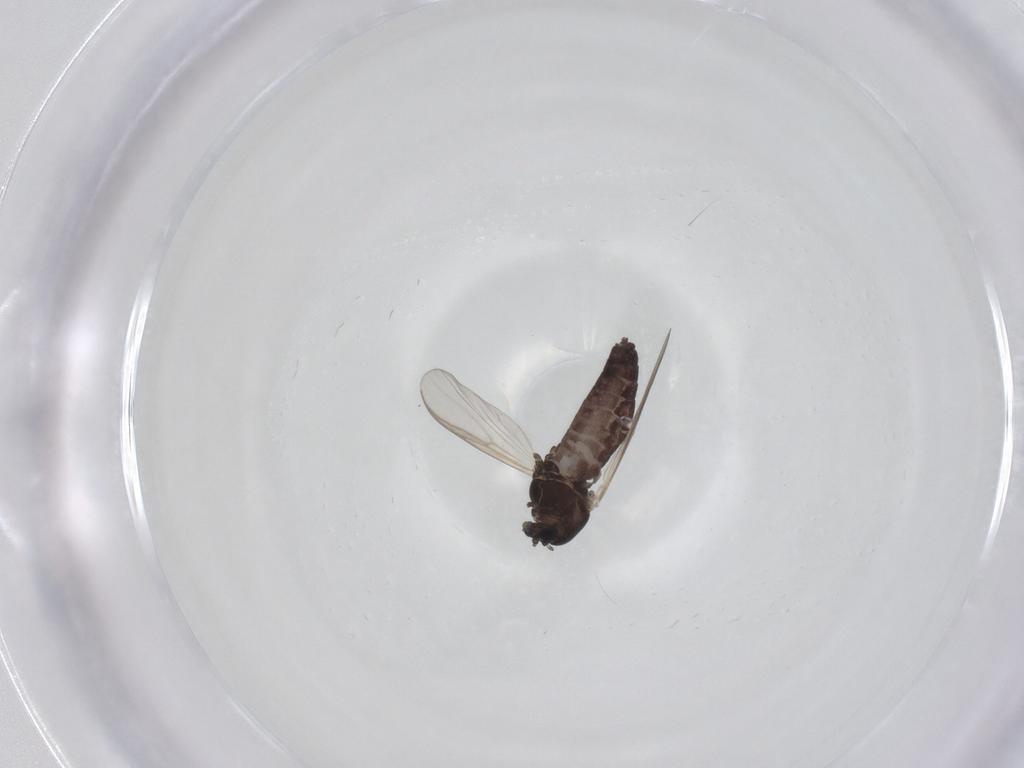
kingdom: Animalia
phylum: Arthropoda
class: Insecta
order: Diptera
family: Chironomidae
